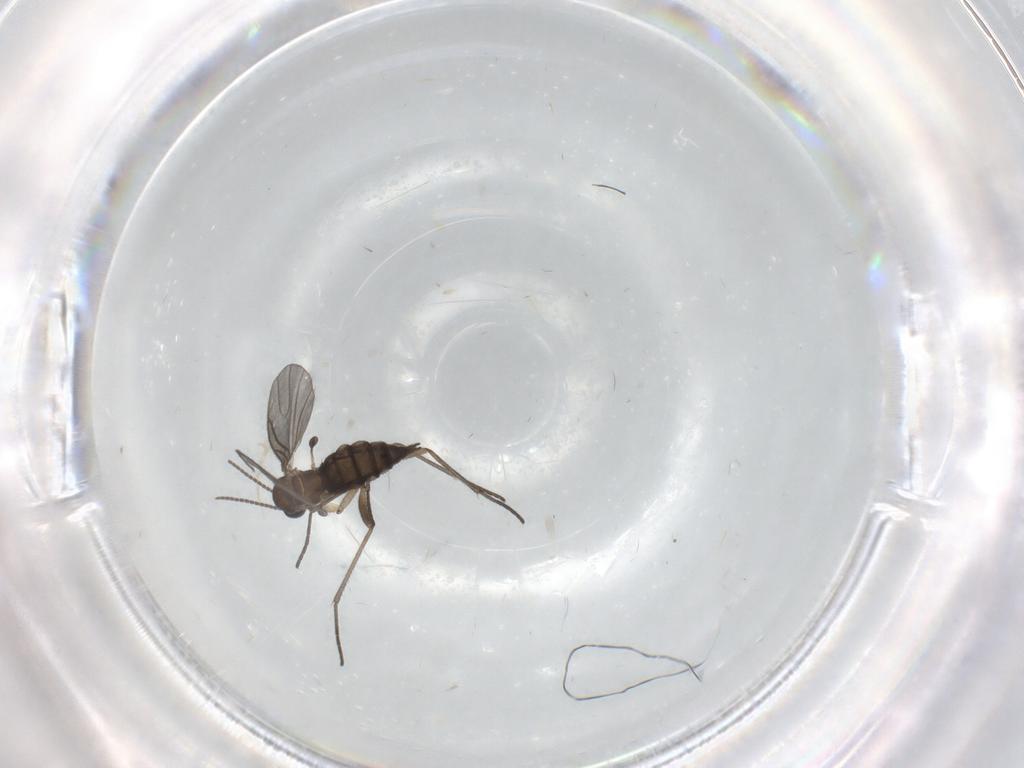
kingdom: Animalia
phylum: Arthropoda
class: Insecta
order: Diptera
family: Sciaridae
